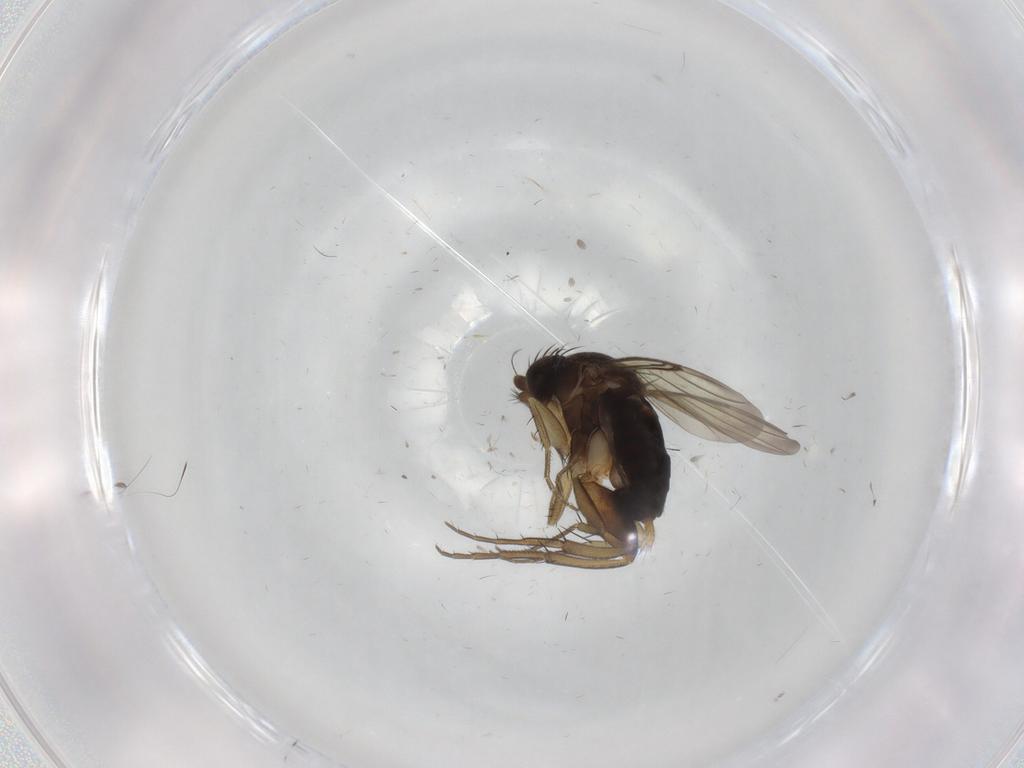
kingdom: Animalia
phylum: Arthropoda
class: Insecta
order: Diptera
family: Phoridae
